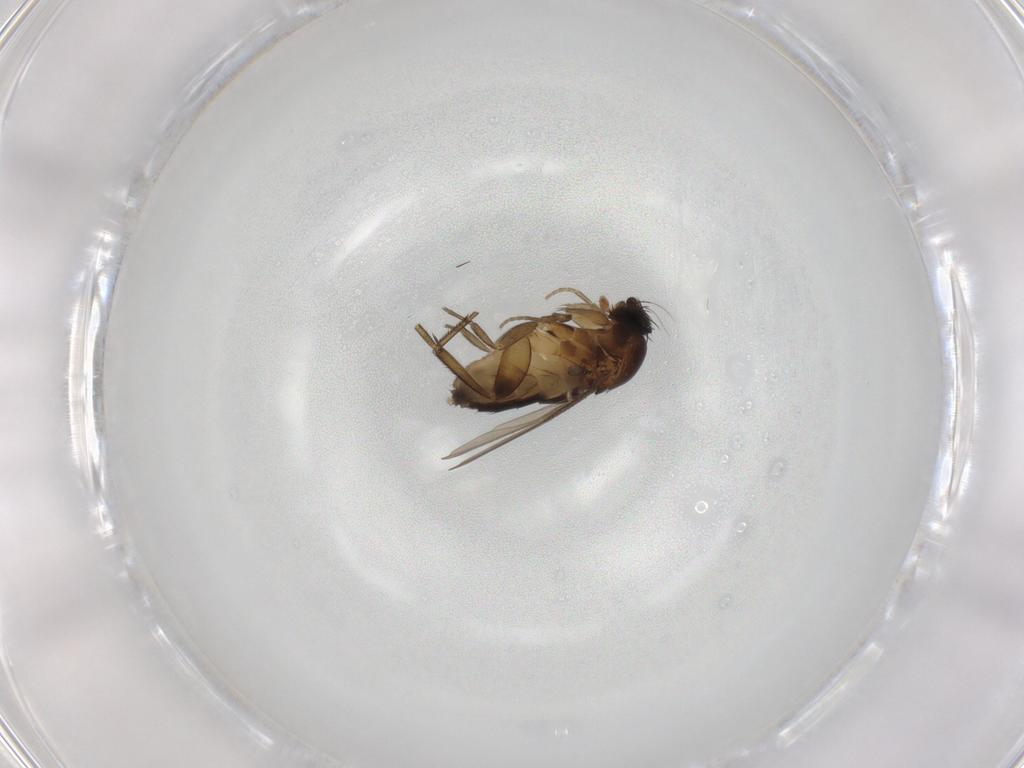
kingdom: Animalia
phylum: Arthropoda
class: Insecta
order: Diptera
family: Phoridae
